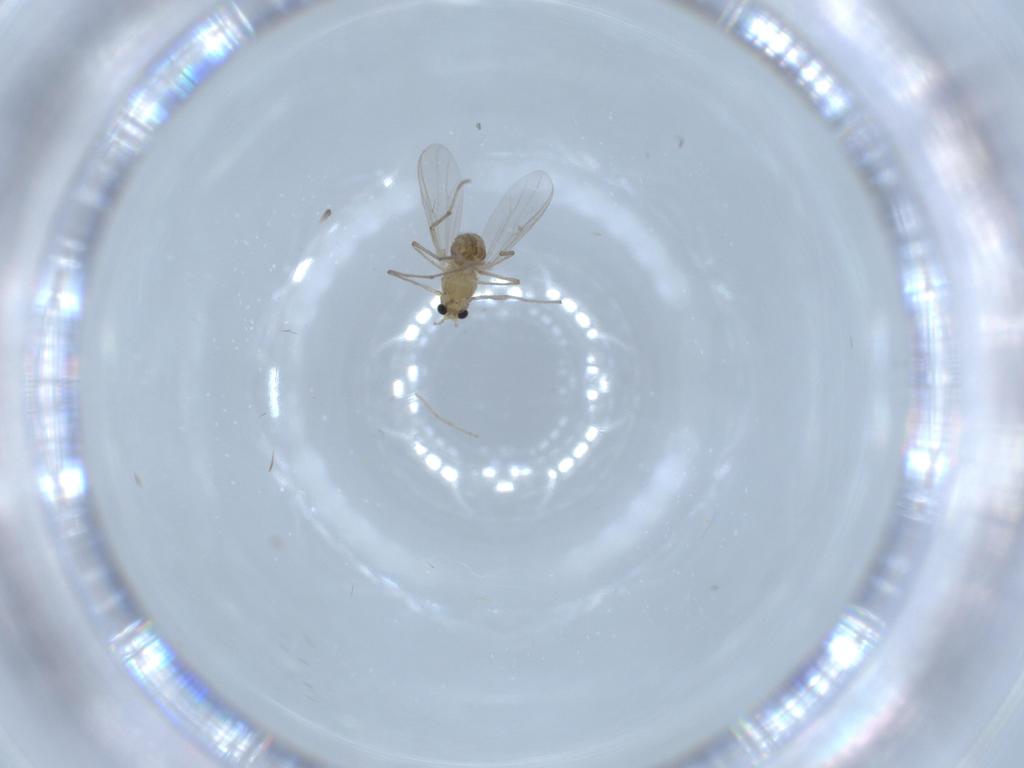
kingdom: Animalia
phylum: Arthropoda
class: Insecta
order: Diptera
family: Chironomidae
